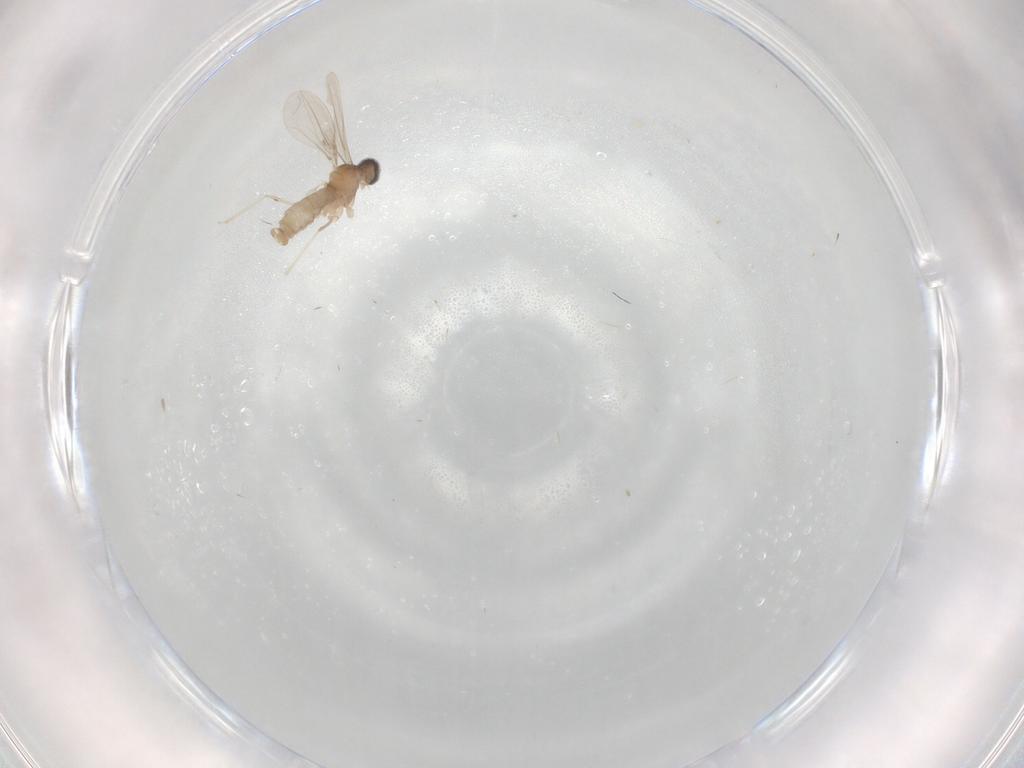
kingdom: Animalia
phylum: Arthropoda
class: Insecta
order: Diptera
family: Cecidomyiidae
